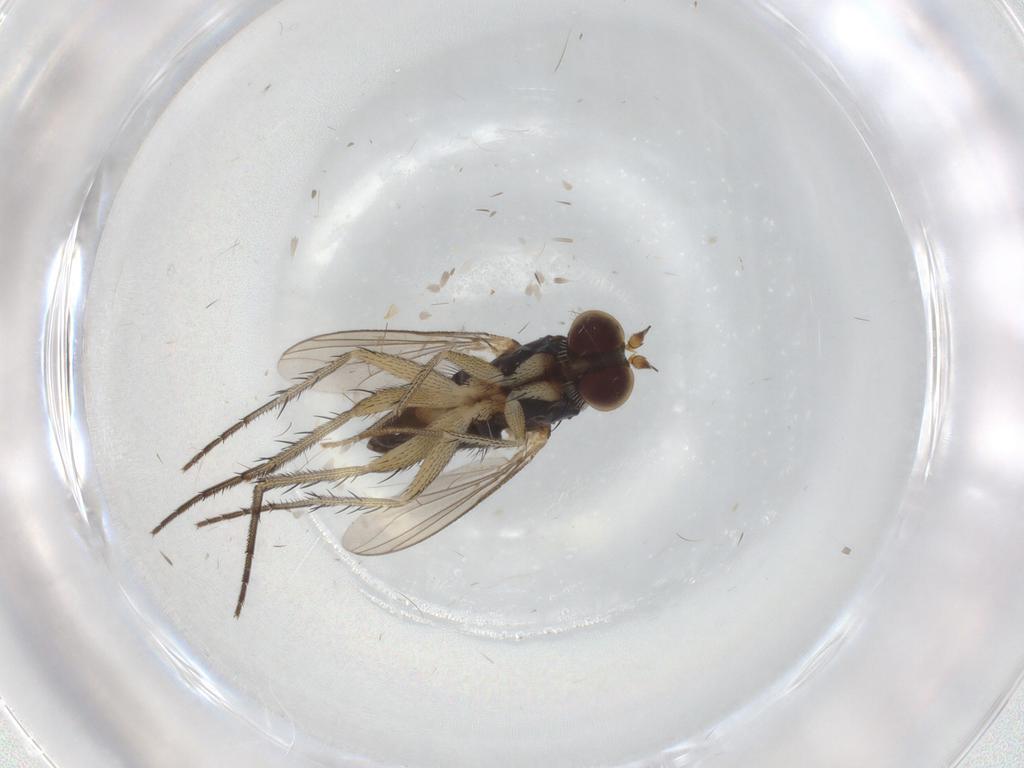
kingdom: Animalia
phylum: Arthropoda
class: Insecta
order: Diptera
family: Dolichopodidae
